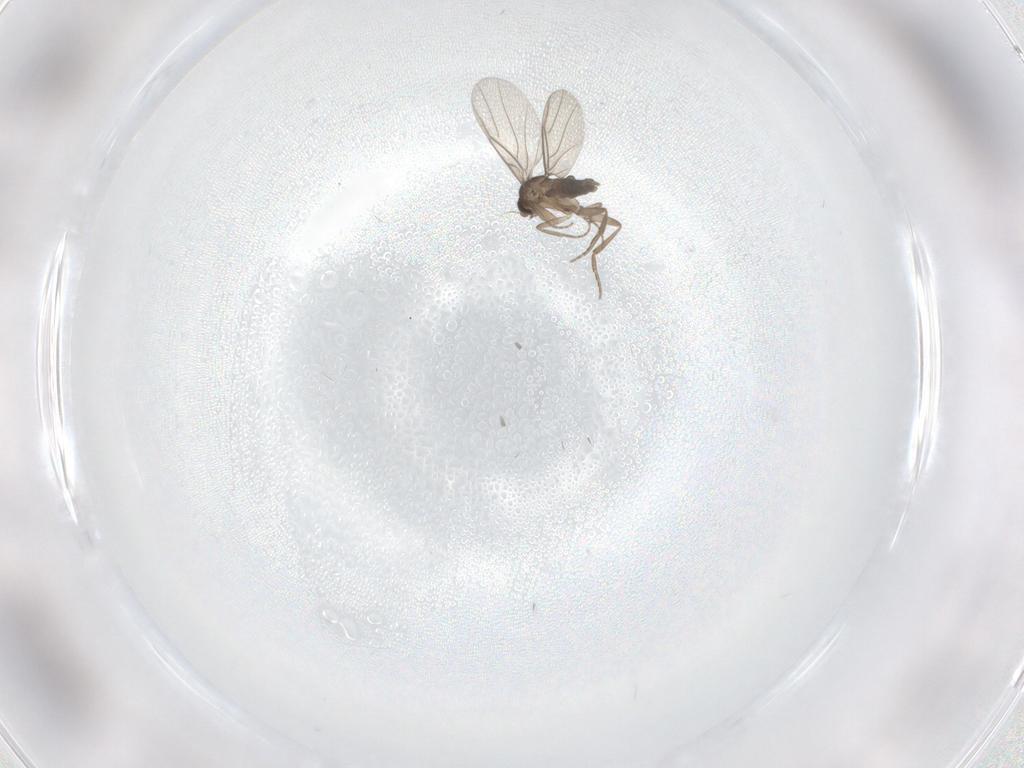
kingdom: Animalia
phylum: Arthropoda
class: Insecta
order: Diptera
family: Phoridae
